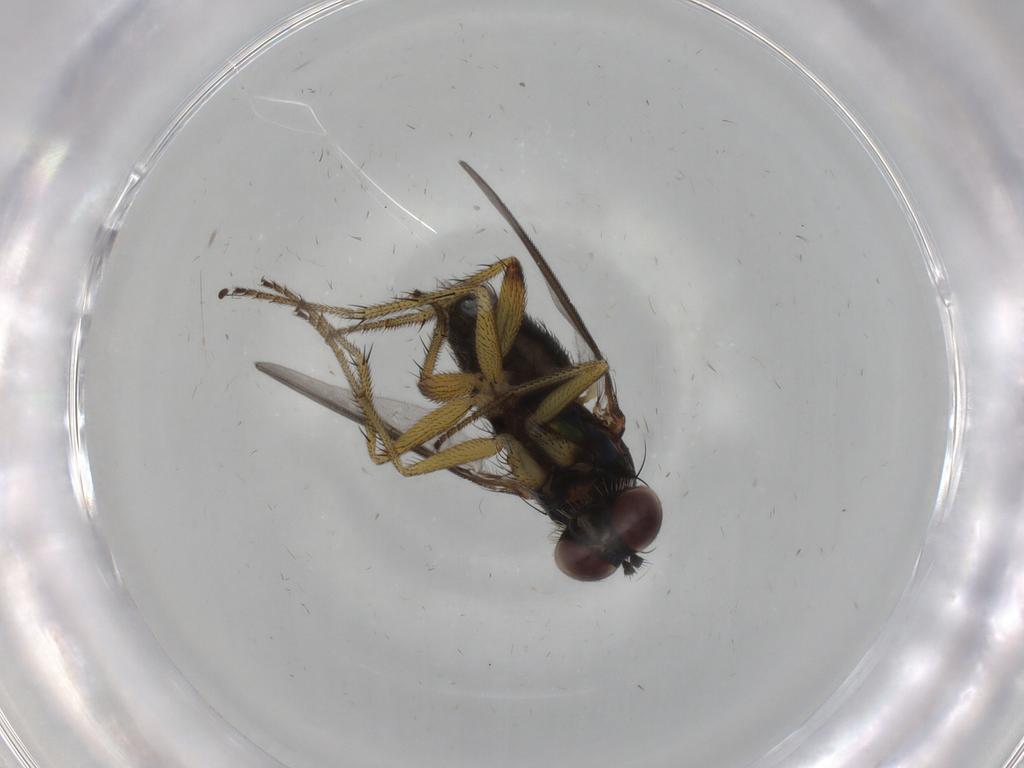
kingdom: Animalia
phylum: Arthropoda
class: Insecta
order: Diptera
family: Dolichopodidae
